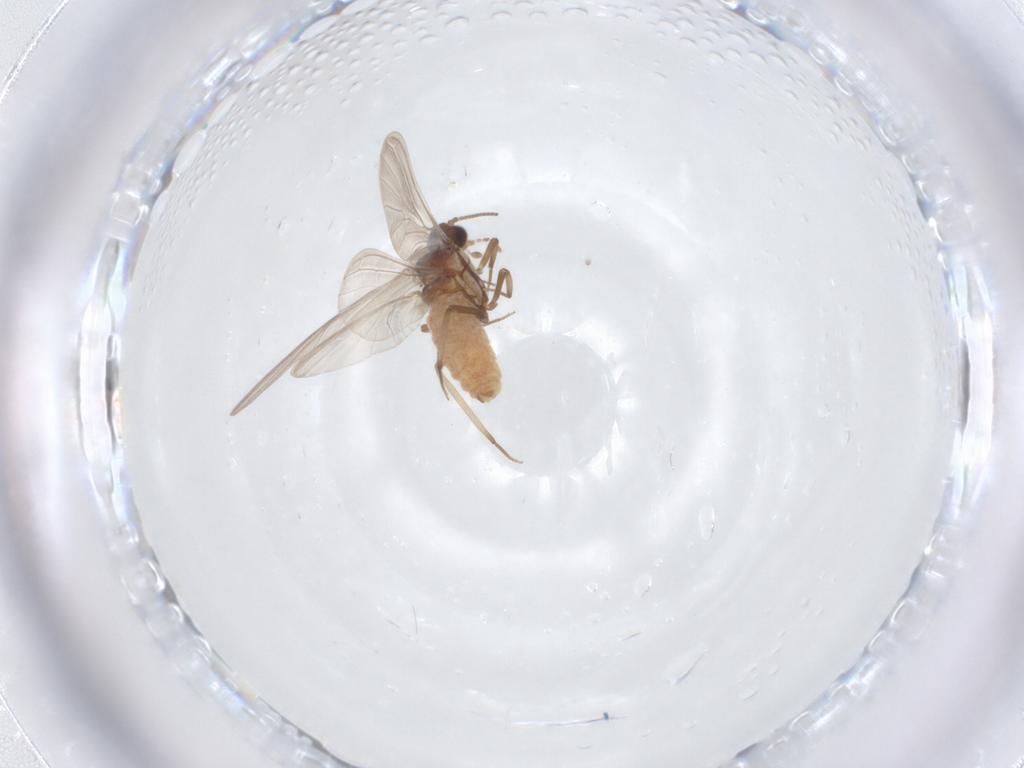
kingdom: Animalia
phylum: Arthropoda
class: Insecta
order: Neuroptera
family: Coniopterygidae
